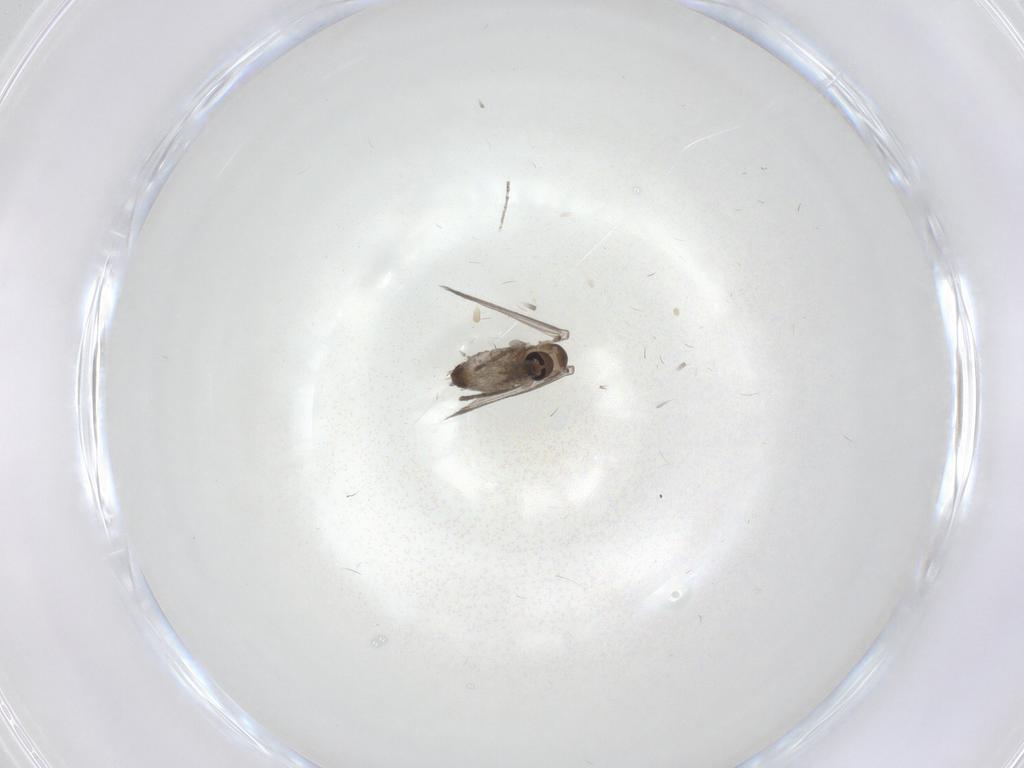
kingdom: Animalia
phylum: Arthropoda
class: Insecta
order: Diptera
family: Psychodidae
